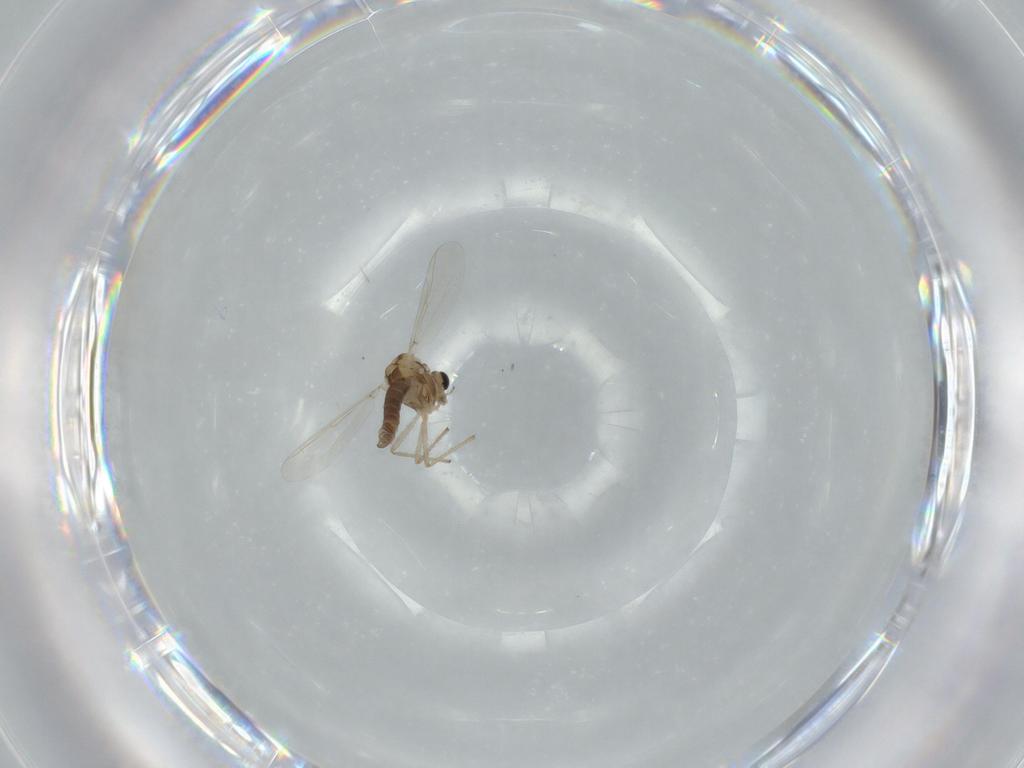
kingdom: Animalia
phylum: Arthropoda
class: Insecta
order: Diptera
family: Chironomidae
